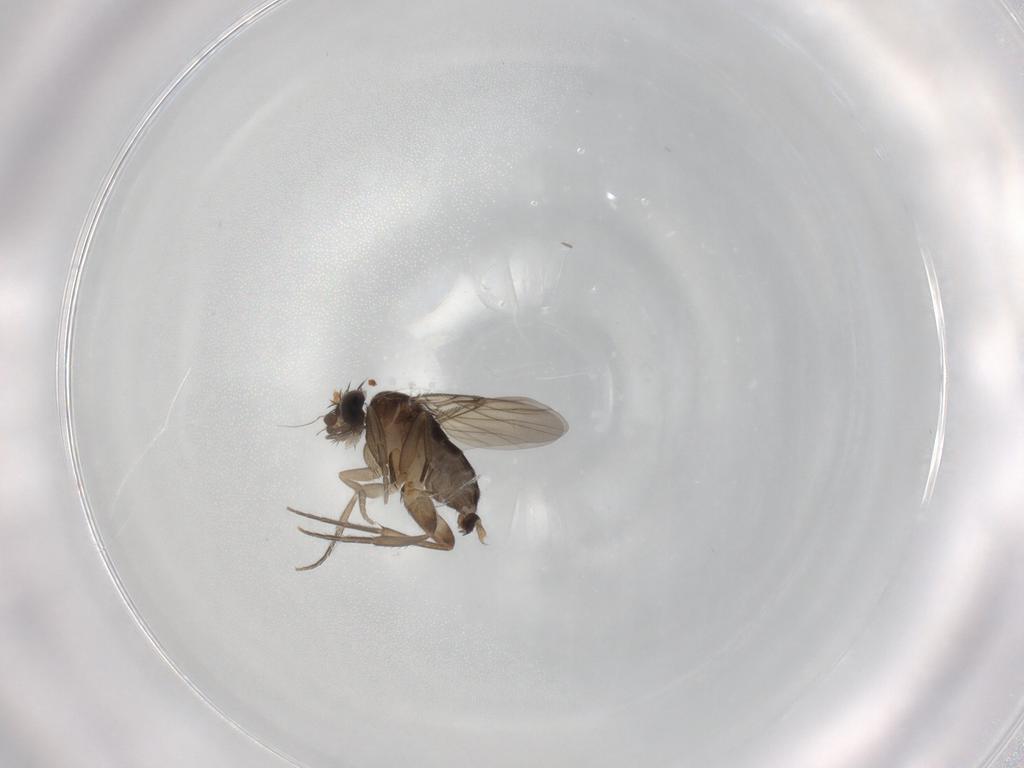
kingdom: Animalia
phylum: Arthropoda
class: Insecta
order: Diptera
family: Phoridae
